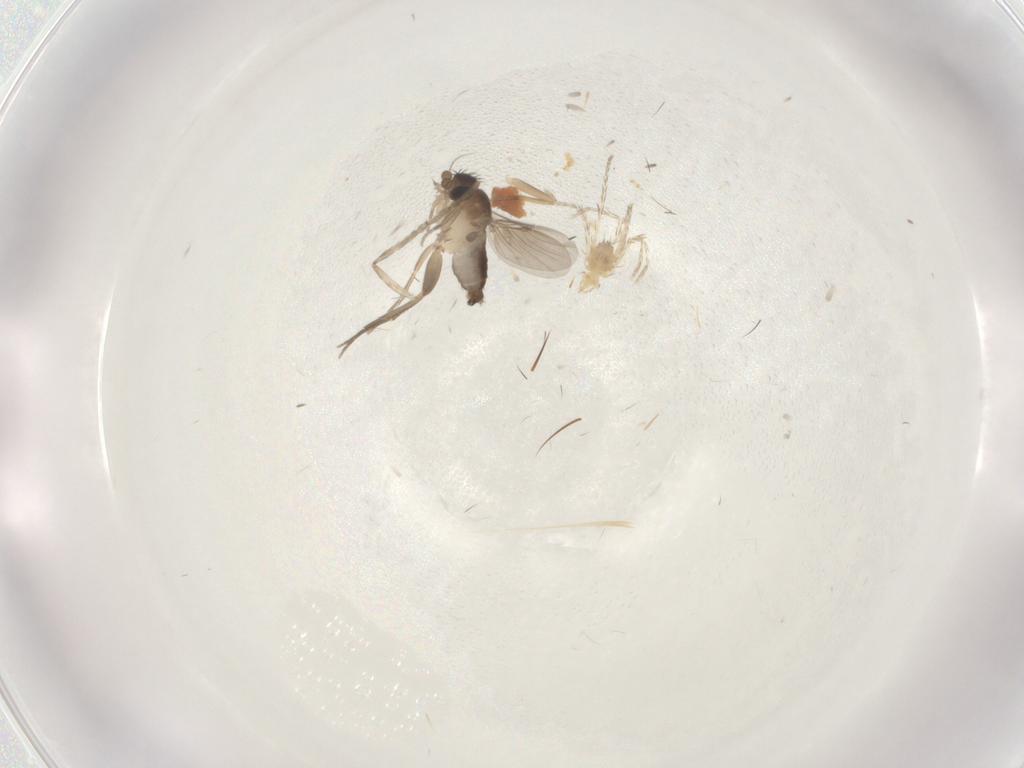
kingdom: Animalia
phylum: Arthropoda
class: Insecta
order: Diptera
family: Phoridae
